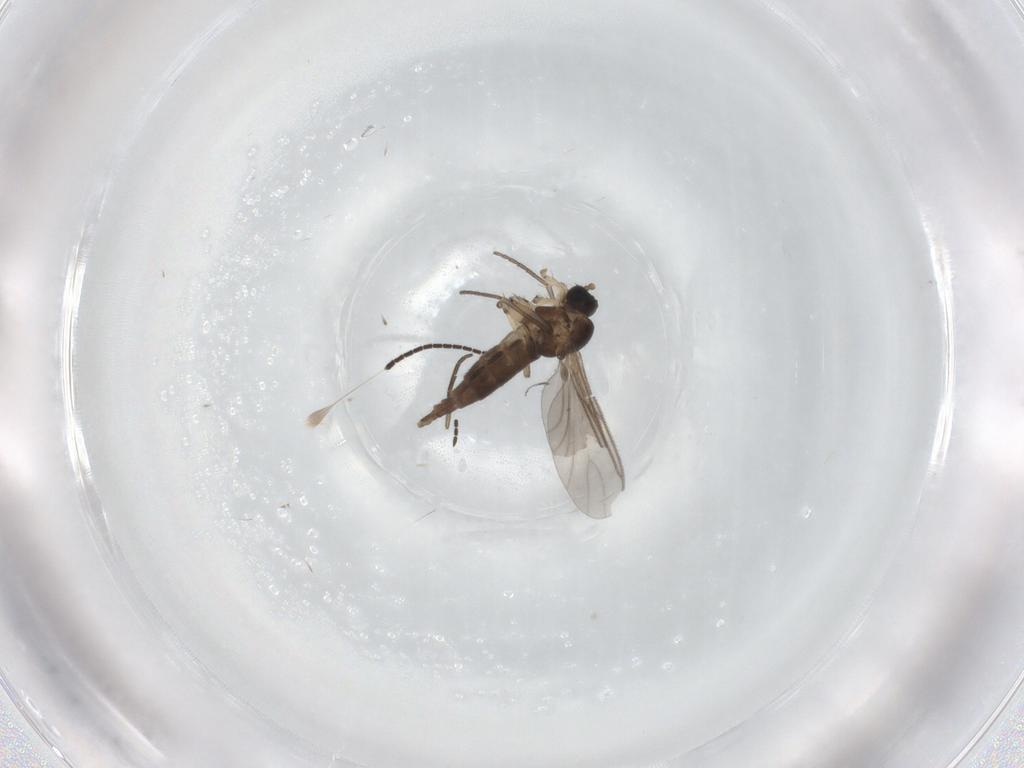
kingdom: Animalia
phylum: Arthropoda
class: Insecta
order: Diptera
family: Sciaridae
